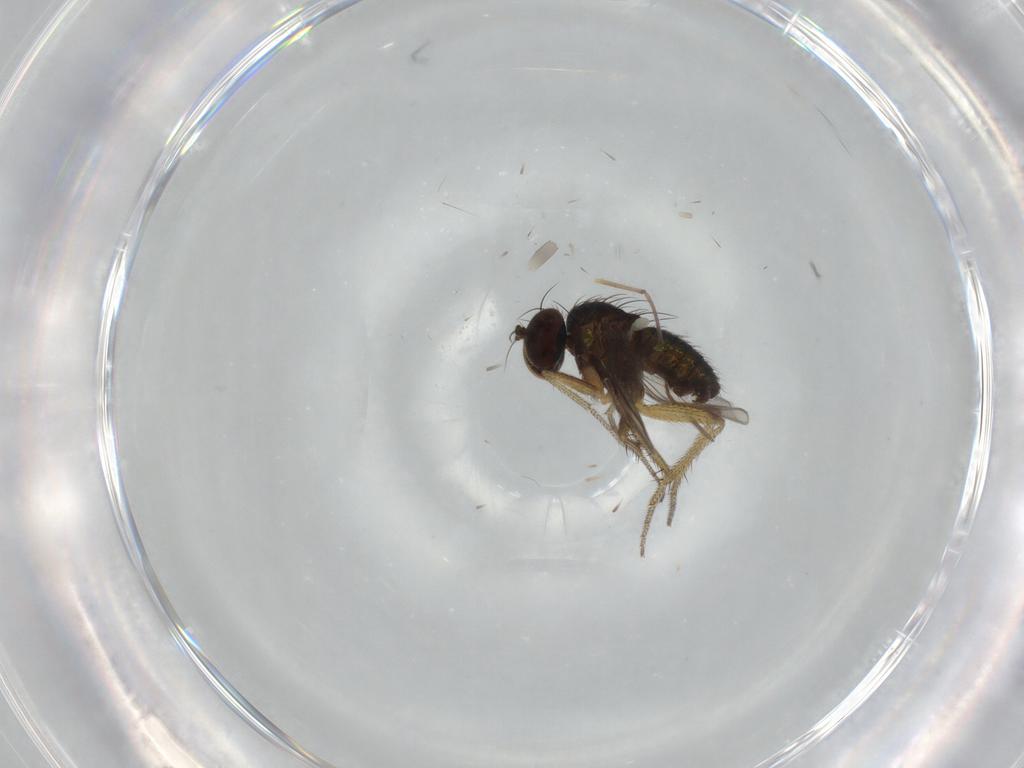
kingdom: Animalia
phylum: Arthropoda
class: Insecta
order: Diptera
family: Dolichopodidae
